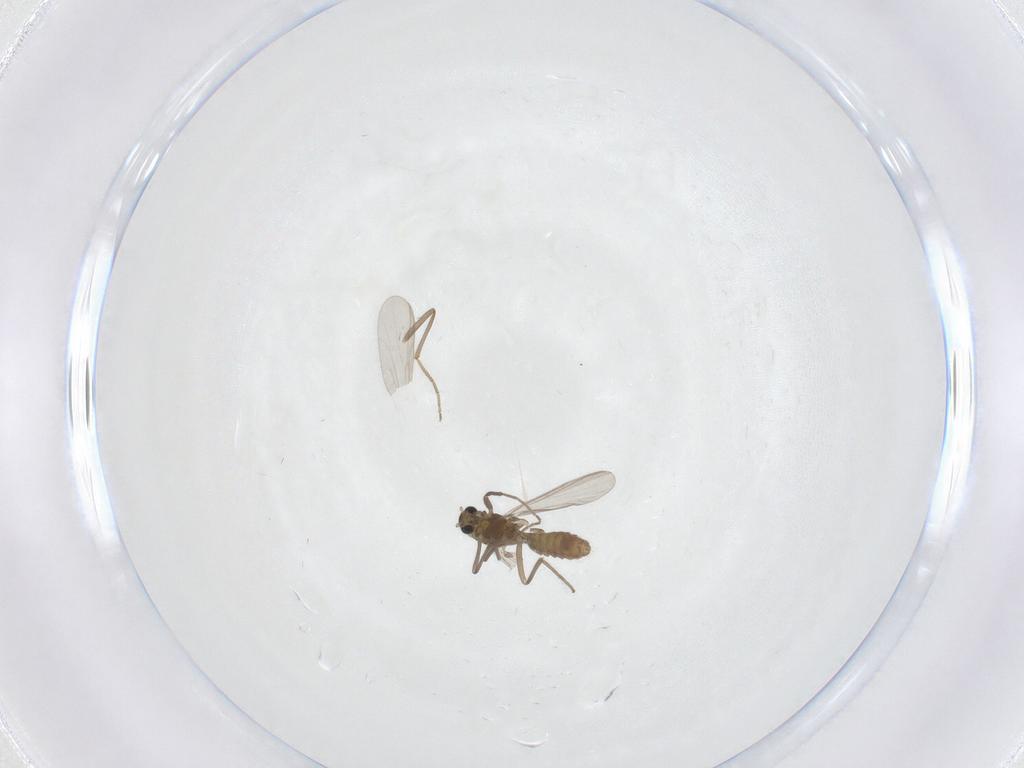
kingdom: Animalia
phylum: Arthropoda
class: Insecta
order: Diptera
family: Chironomidae
